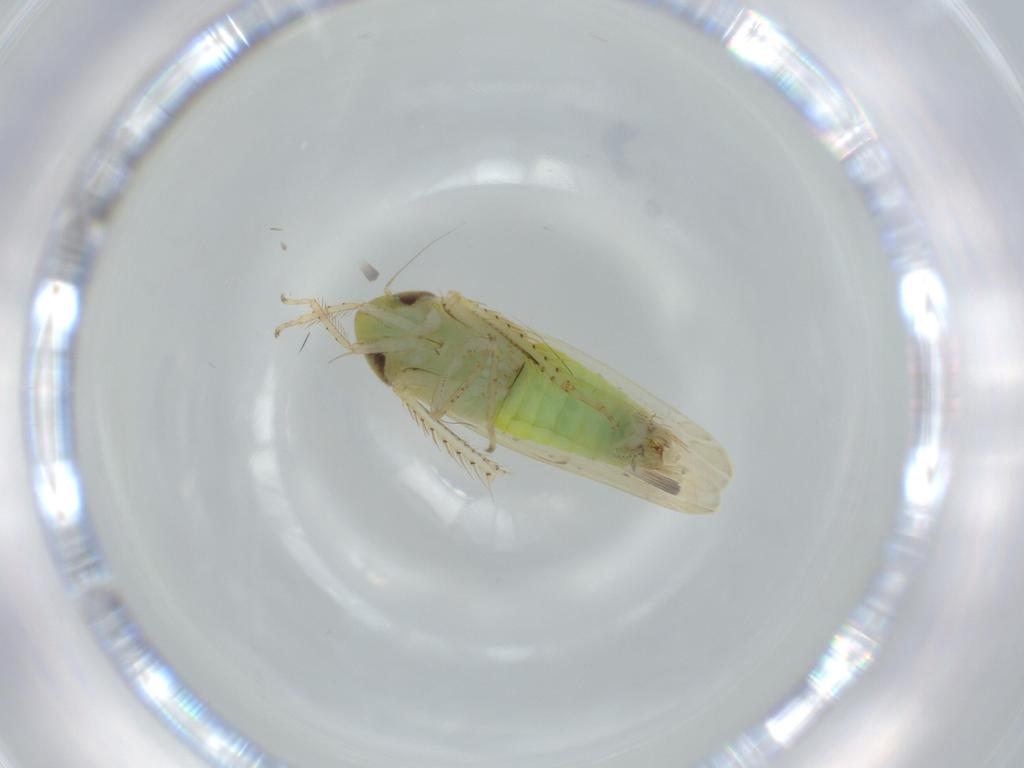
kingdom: Animalia
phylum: Arthropoda
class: Insecta
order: Hemiptera
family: Cicadellidae
